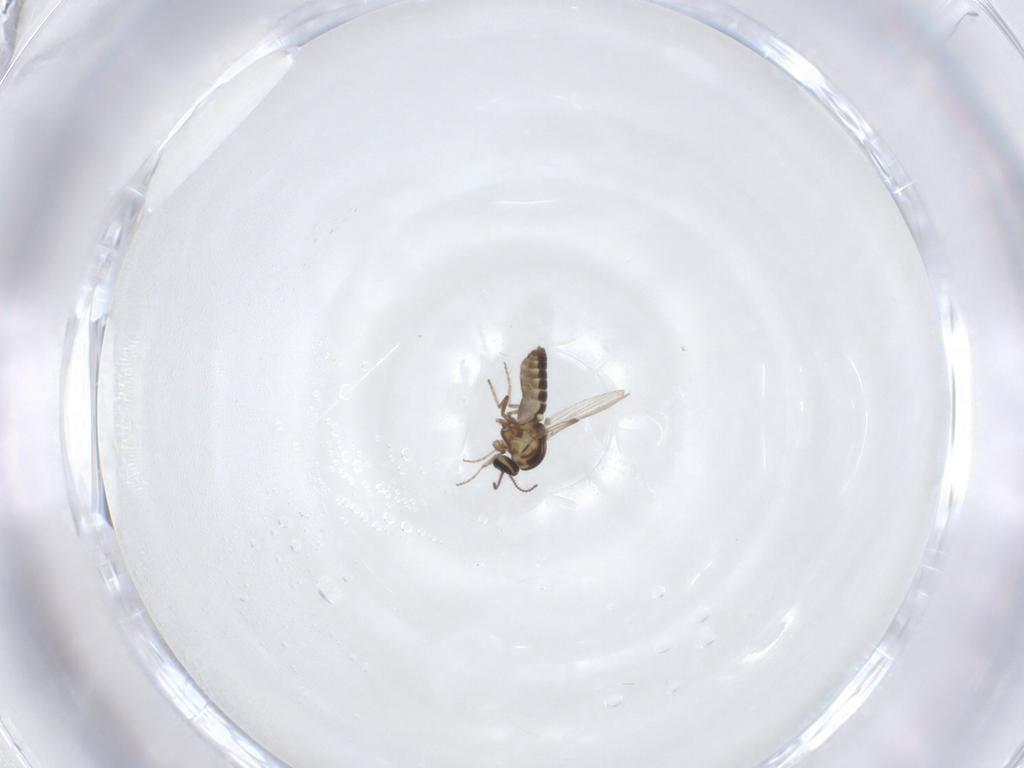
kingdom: Animalia
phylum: Arthropoda
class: Insecta
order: Diptera
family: Ceratopogonidae
